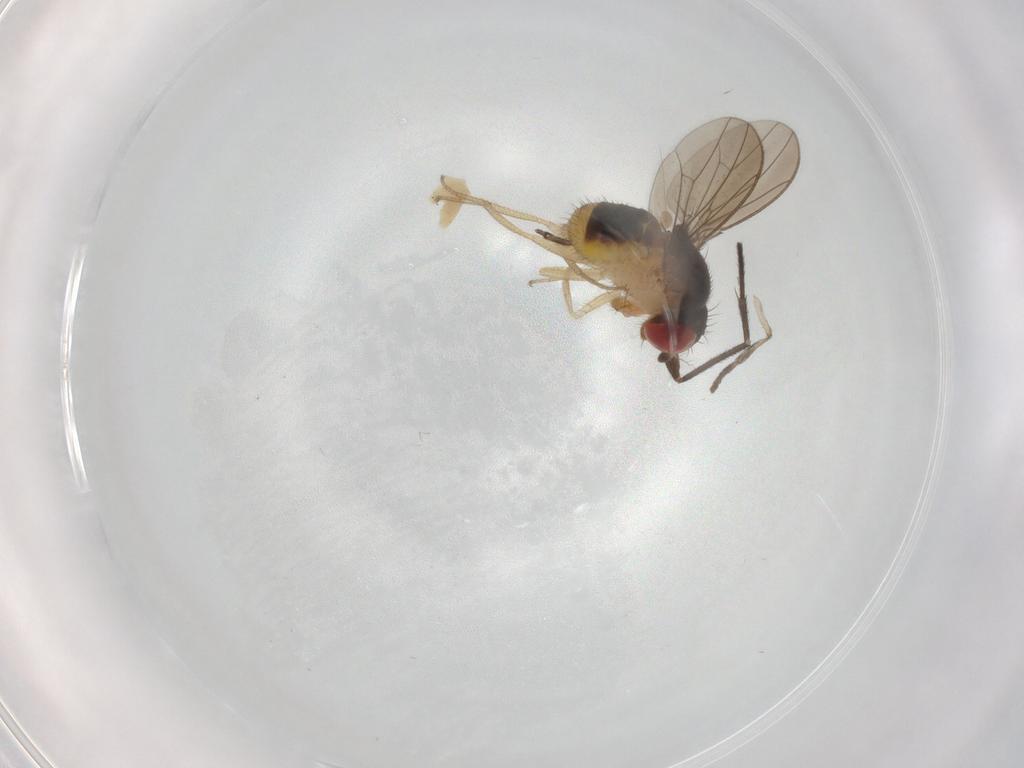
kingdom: Animalia
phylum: Arthropoda
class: Insecta
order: Diptera
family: Drosophilidae
